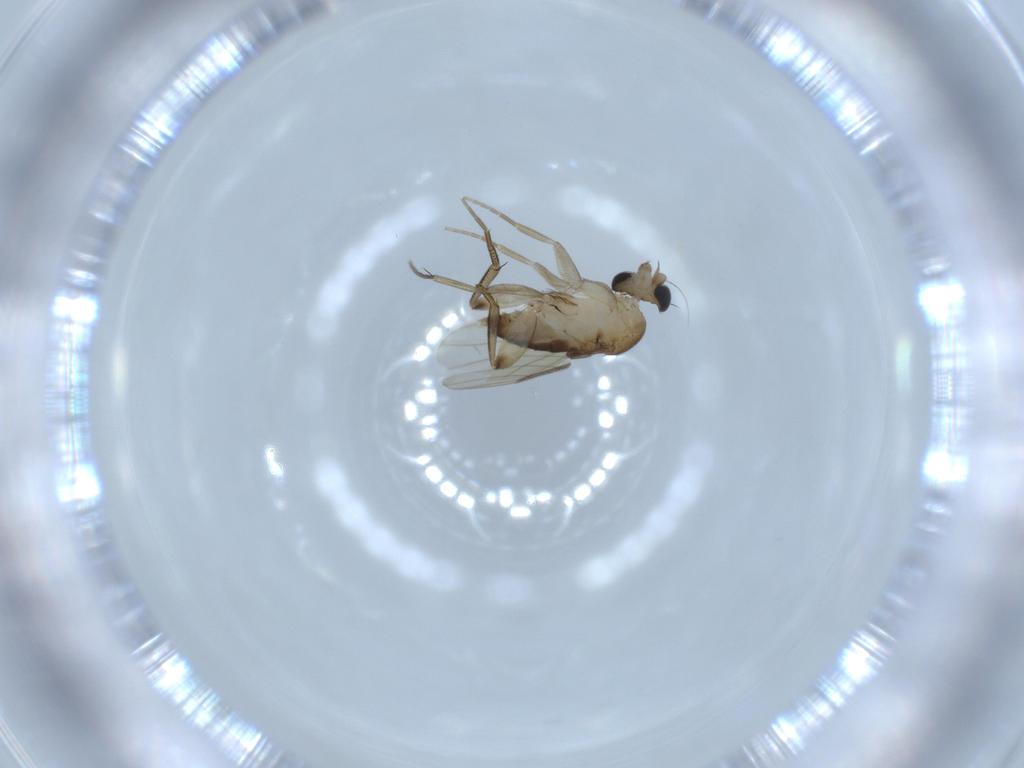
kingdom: Animalia
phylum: Arthropoda
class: Insecta
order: Diptera
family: Phoridae
